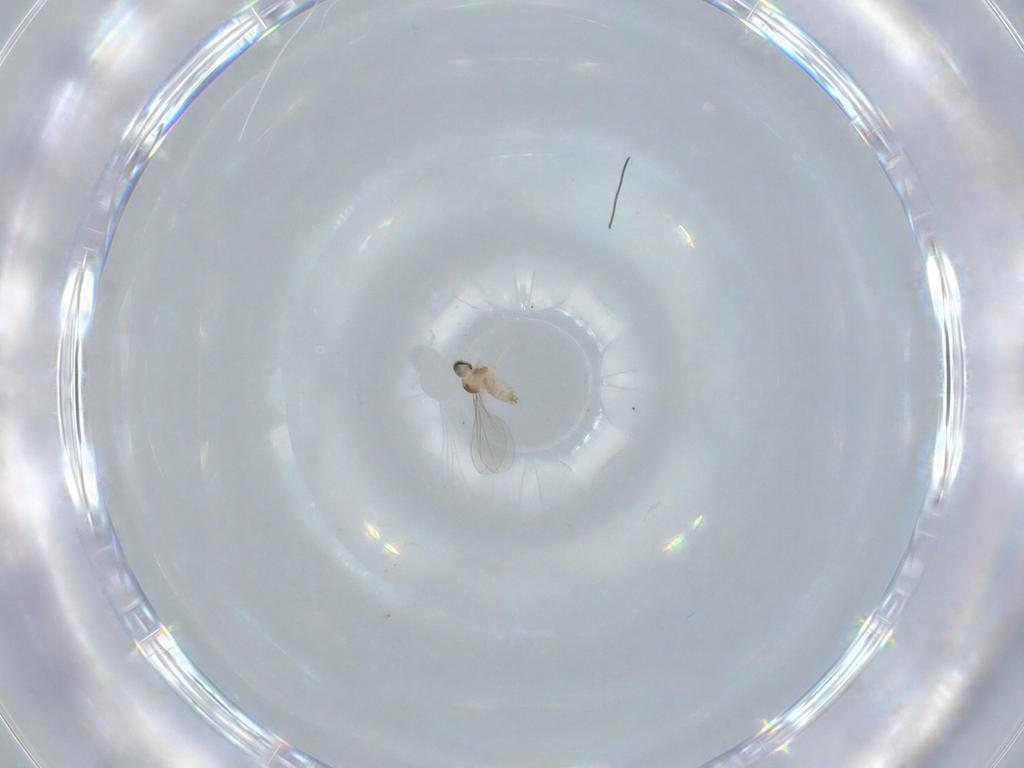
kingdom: Animalia
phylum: Arthropoda
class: Insecta
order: Diptera
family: Cecidomyiidae
